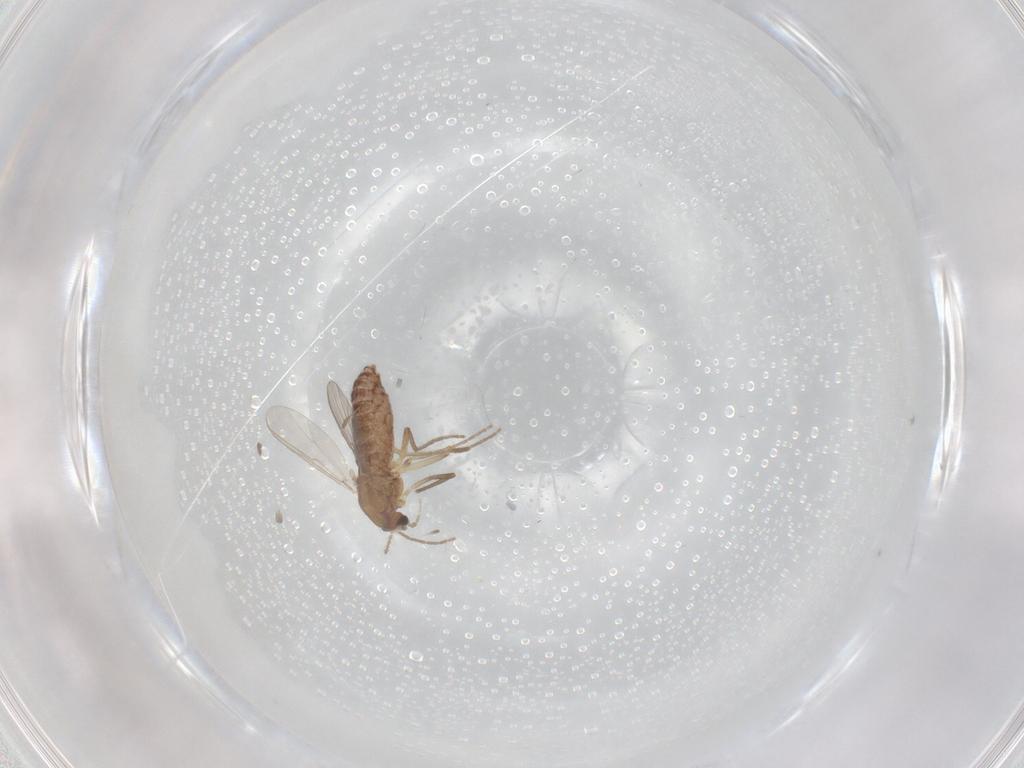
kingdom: Animalia
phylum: Arthropoda
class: Insecta
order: Diptera
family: Chironomidae
